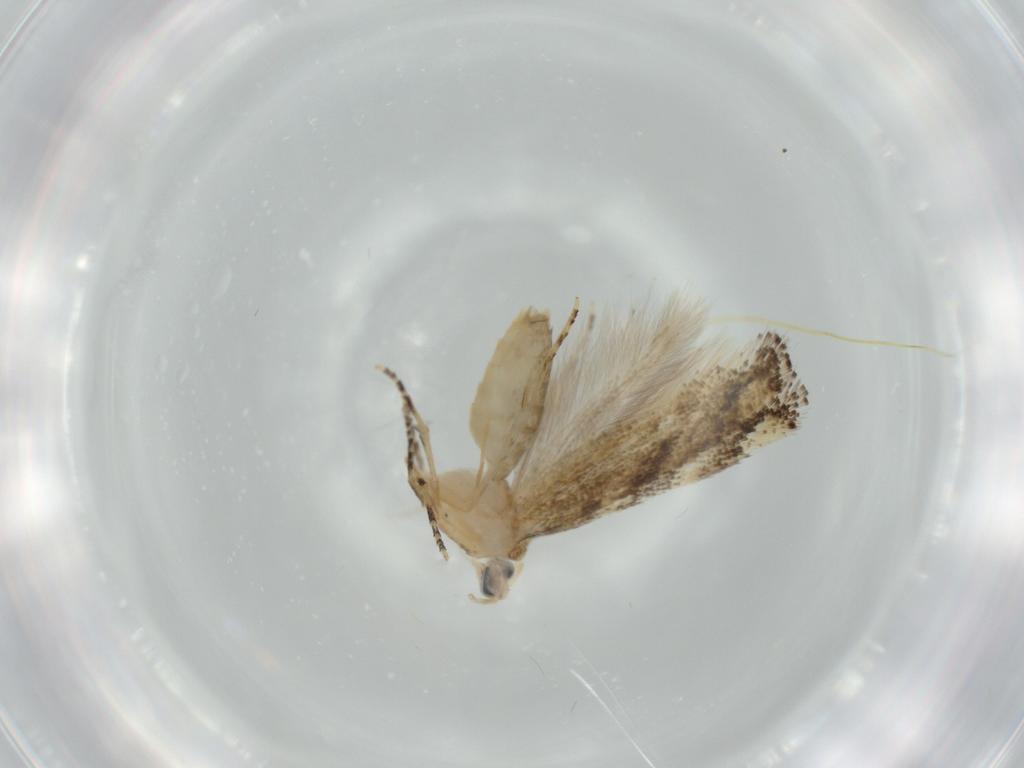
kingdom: Animalia
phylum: Arthropoda
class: Insecta
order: Lepidoptera
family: Bucculatricidae
